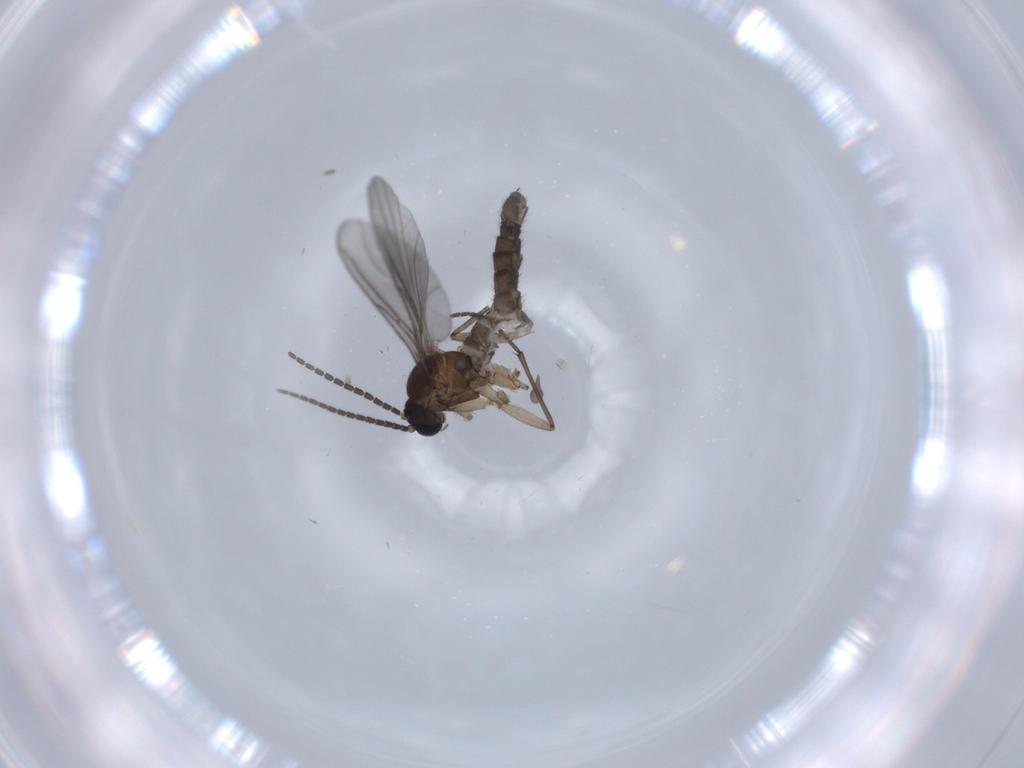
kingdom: Animalia
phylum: Arthropoda
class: Insecta
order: Diptera
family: Sciaridae
